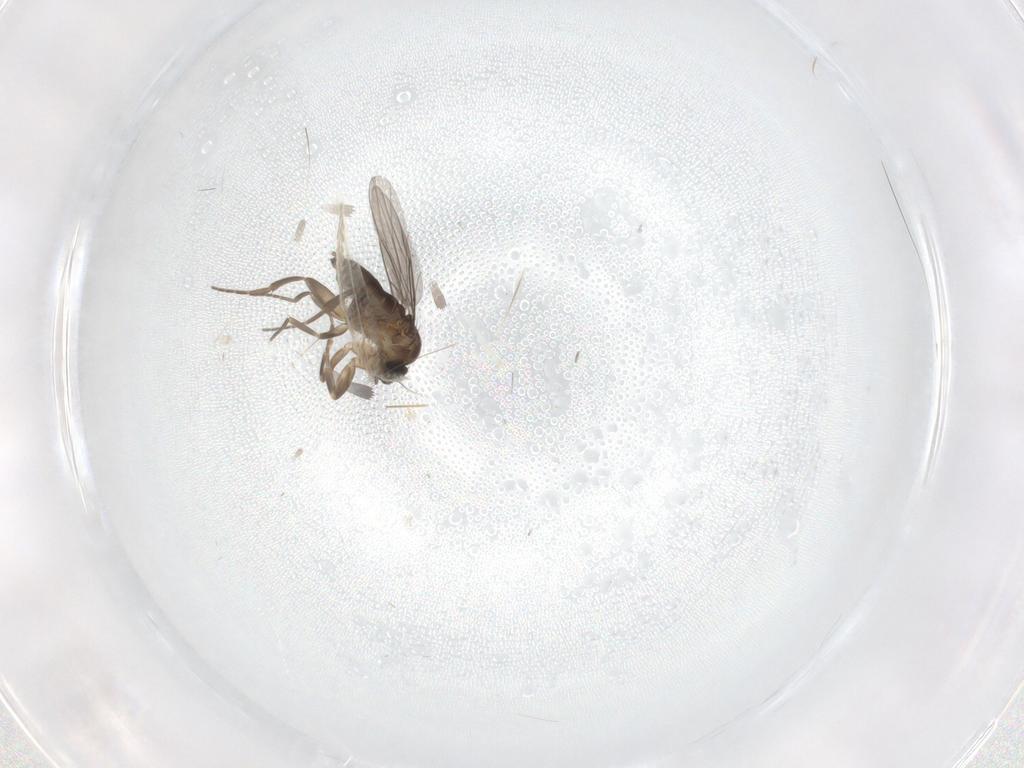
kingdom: Animalia
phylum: Arthropoda
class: Insecta
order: Diptera
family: Phoridae
